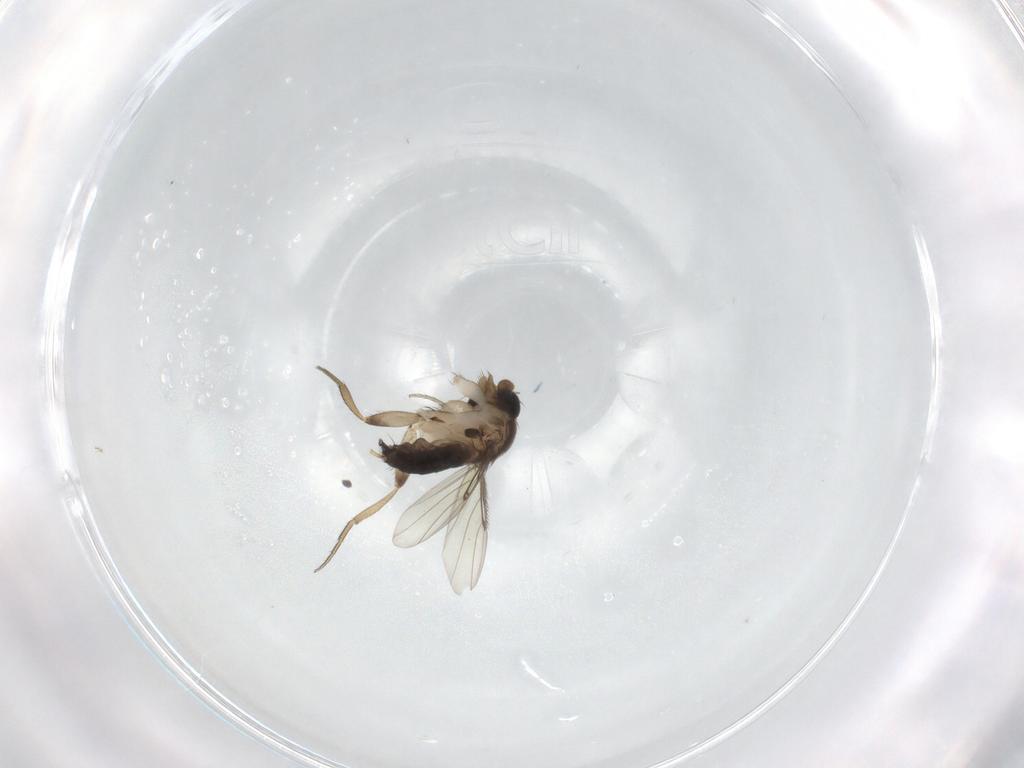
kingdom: Animalia
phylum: Arthropoda
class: Insecta
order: Diptera
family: Phoridae
